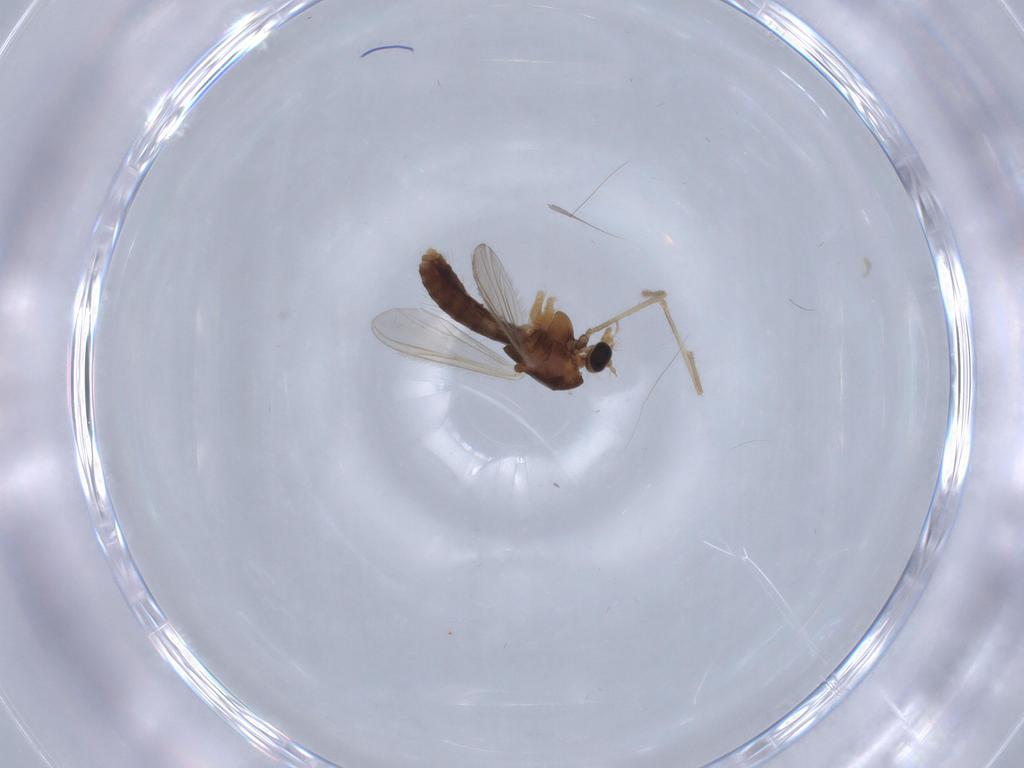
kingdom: Animalia
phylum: Arthropoda
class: Insecta
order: Diptera
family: Chironomidae
